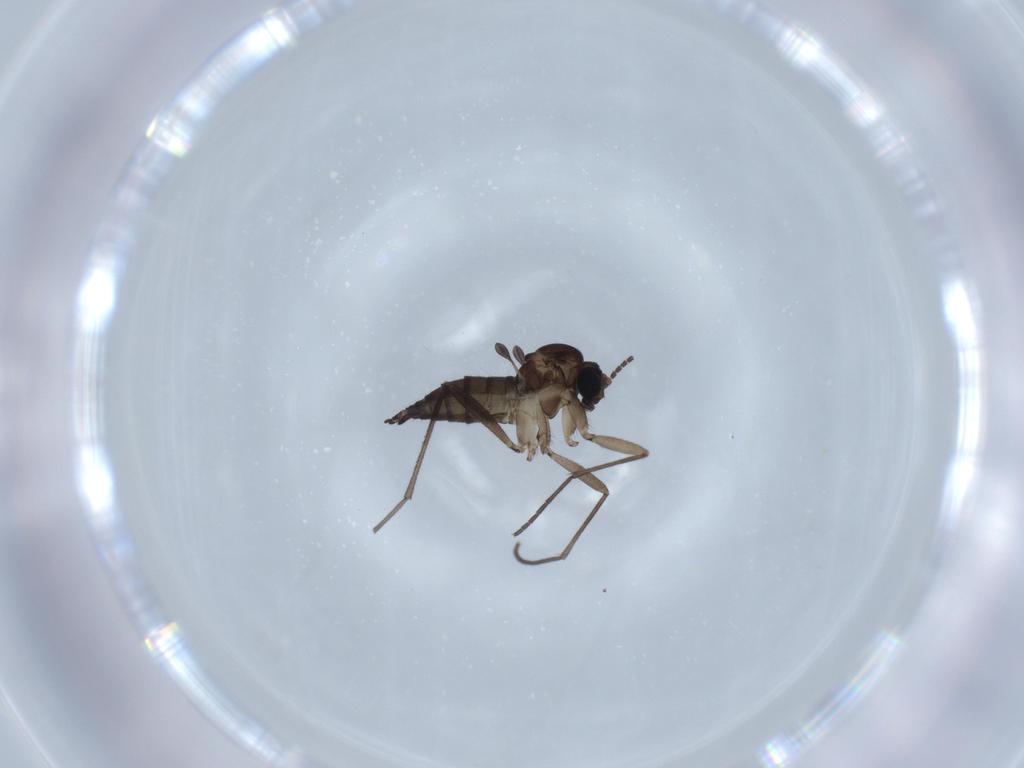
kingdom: Animalia
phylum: Arthropoda
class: Insecta
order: Diptera
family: Sciaridae
